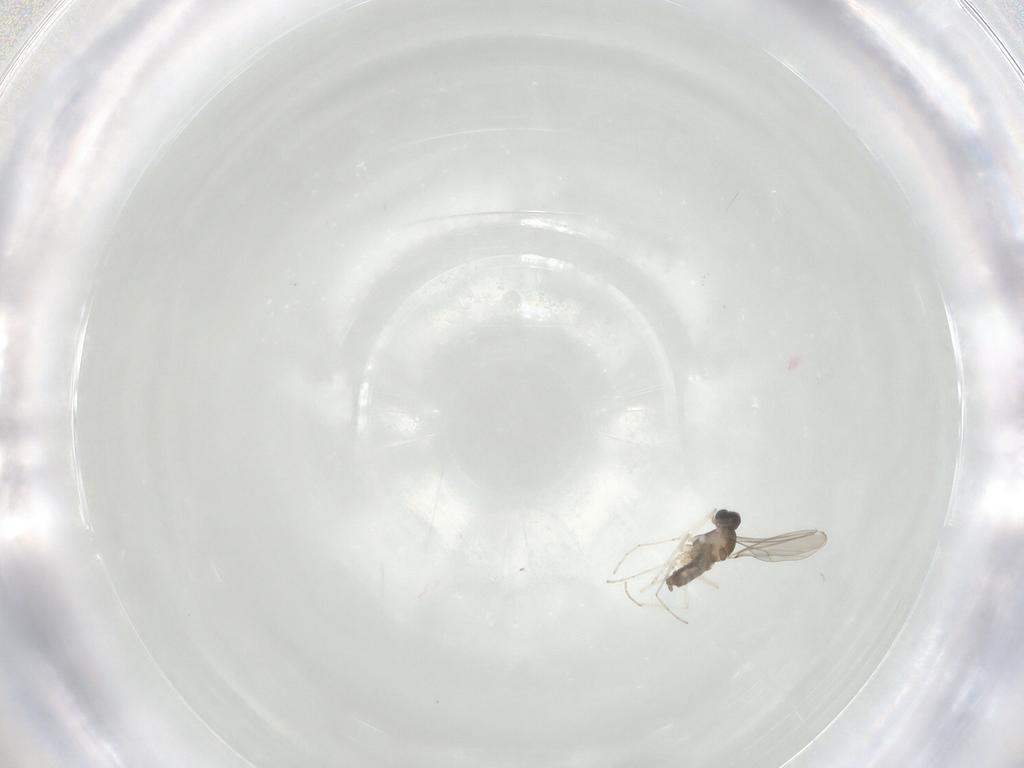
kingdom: Animalia
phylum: Arthropoda
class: Insecta
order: Diptera
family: Cecidomyiidae
